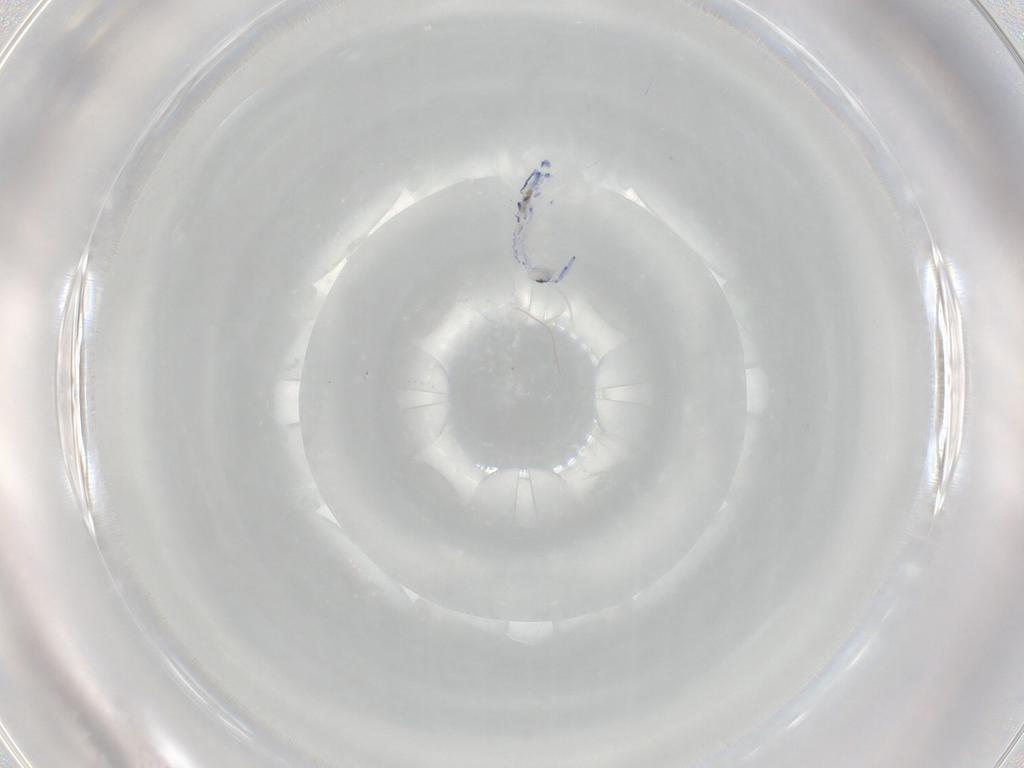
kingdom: Animalia
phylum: Arthropoda
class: Collembola
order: Entomobryomorpha
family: Entomobryidae
